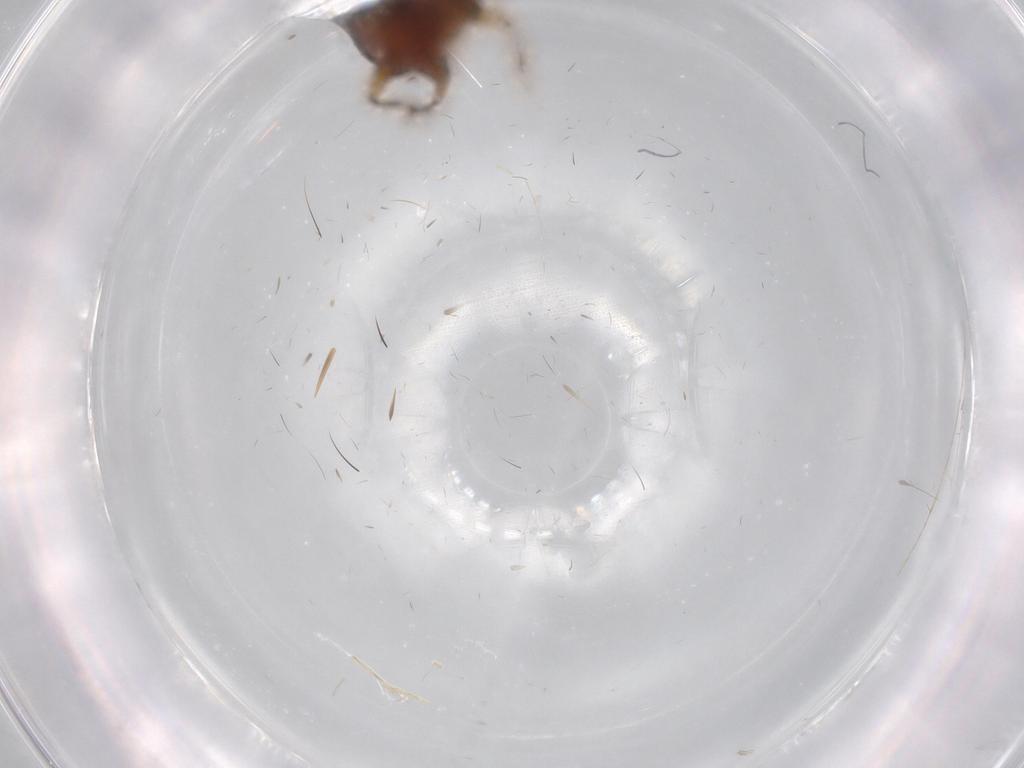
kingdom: Animalia
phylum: Arthropoda
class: Insecta
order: Coleoptera
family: Staphylinidae
